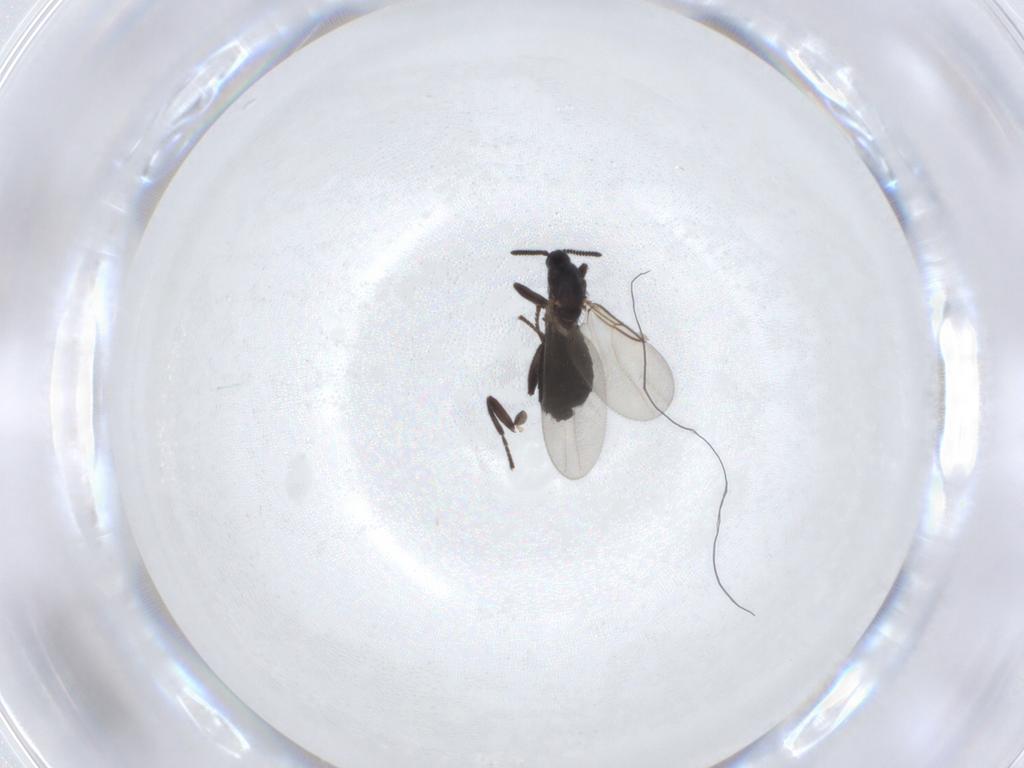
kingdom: Animalia
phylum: Arthropoda
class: Insecta
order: Diptera
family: Scatopsidae
